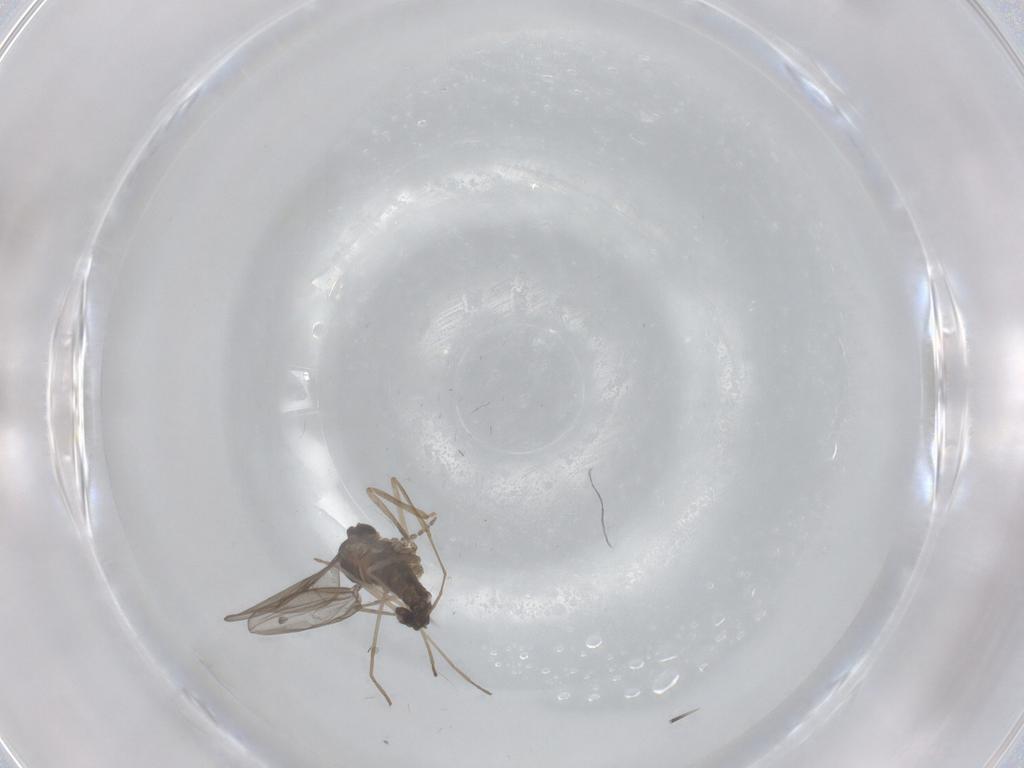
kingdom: Animalia
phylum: Arthropoda
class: Insecta
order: Diptera
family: Cecidomyiidae
